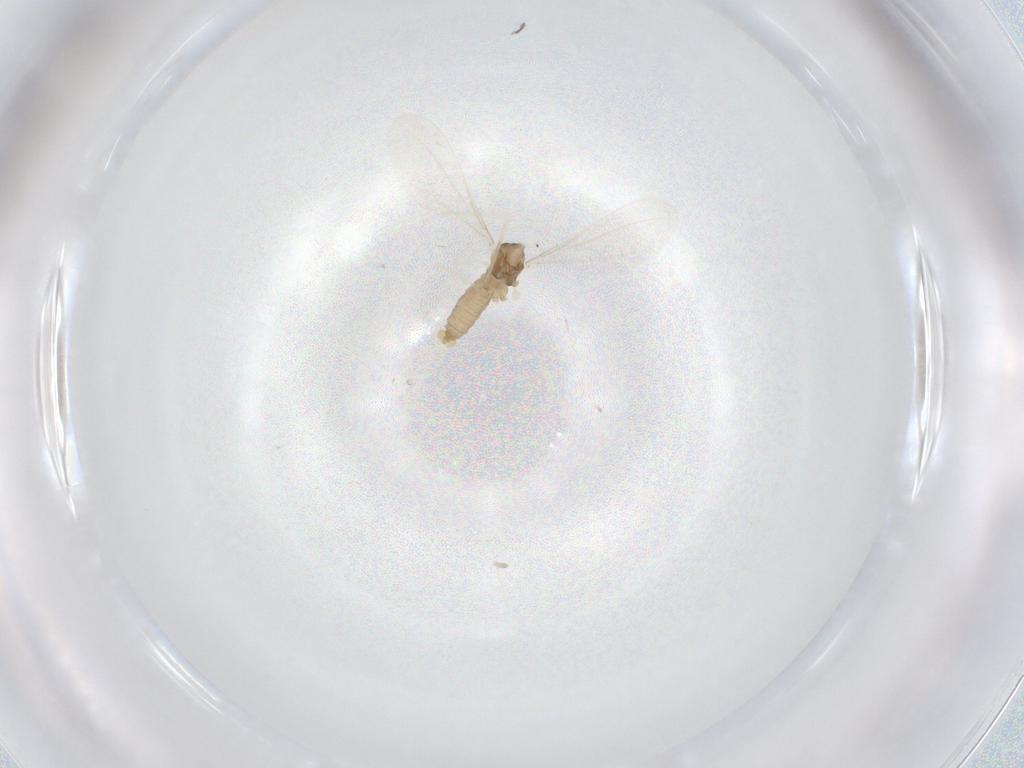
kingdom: Animalia
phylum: Arthropoda
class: Insecta
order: Diptera
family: Cecidomyiidae
